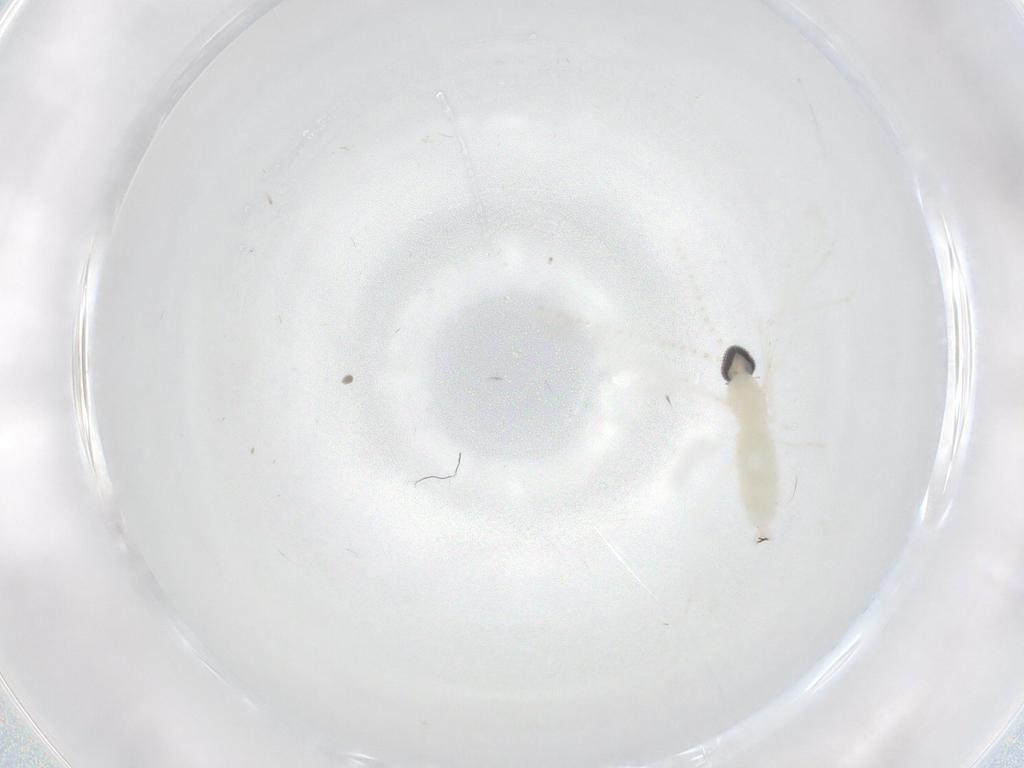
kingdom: Animalia
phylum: Arthropoda
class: Insecta
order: Diptera
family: Cecidomyiidae
